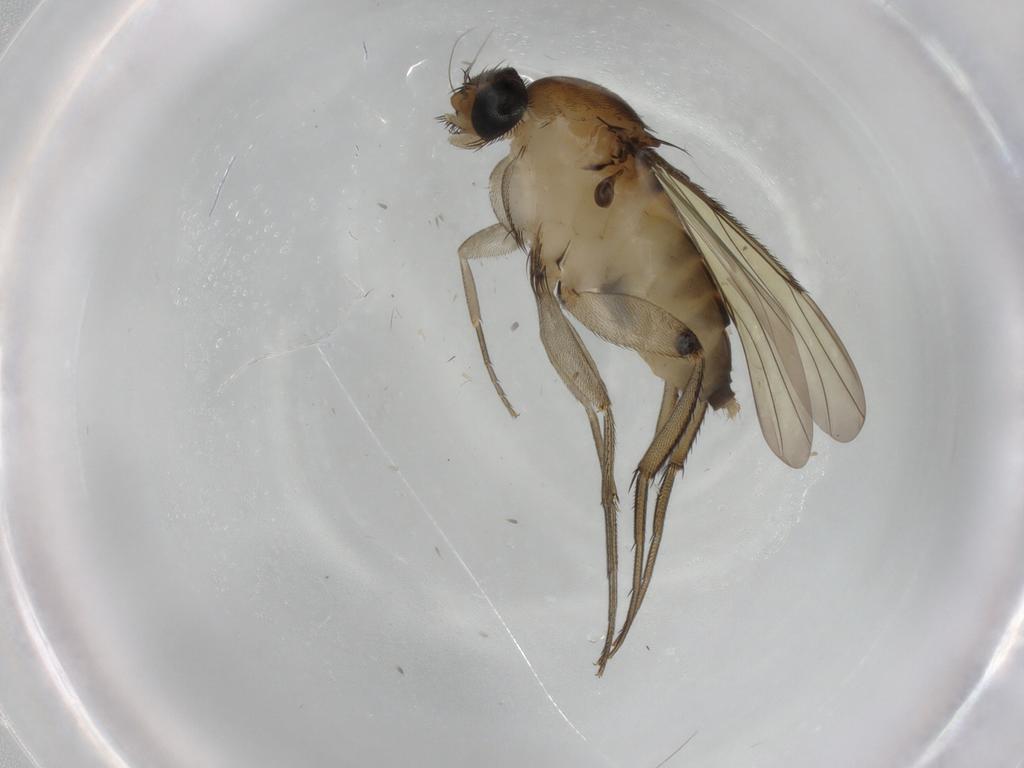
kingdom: Animalia
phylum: Arthropoda
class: Insecta
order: Diptera
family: Phoridae
